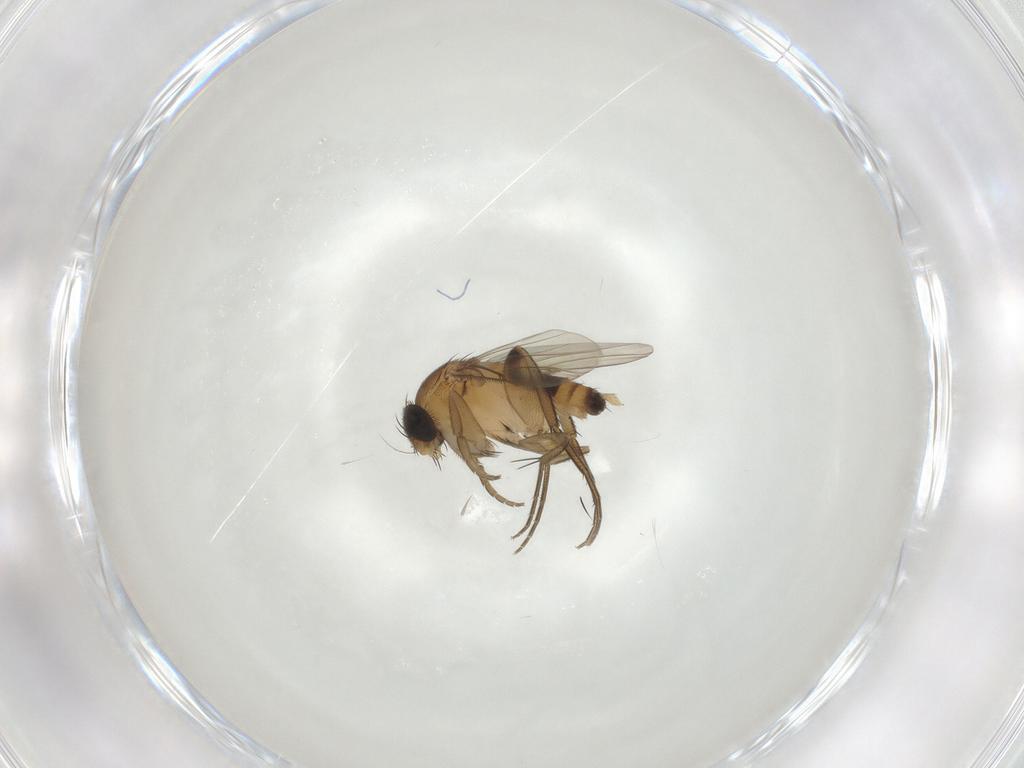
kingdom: Animalia
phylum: Arthropoda
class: Insecta
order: Diptera
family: Phoridae
